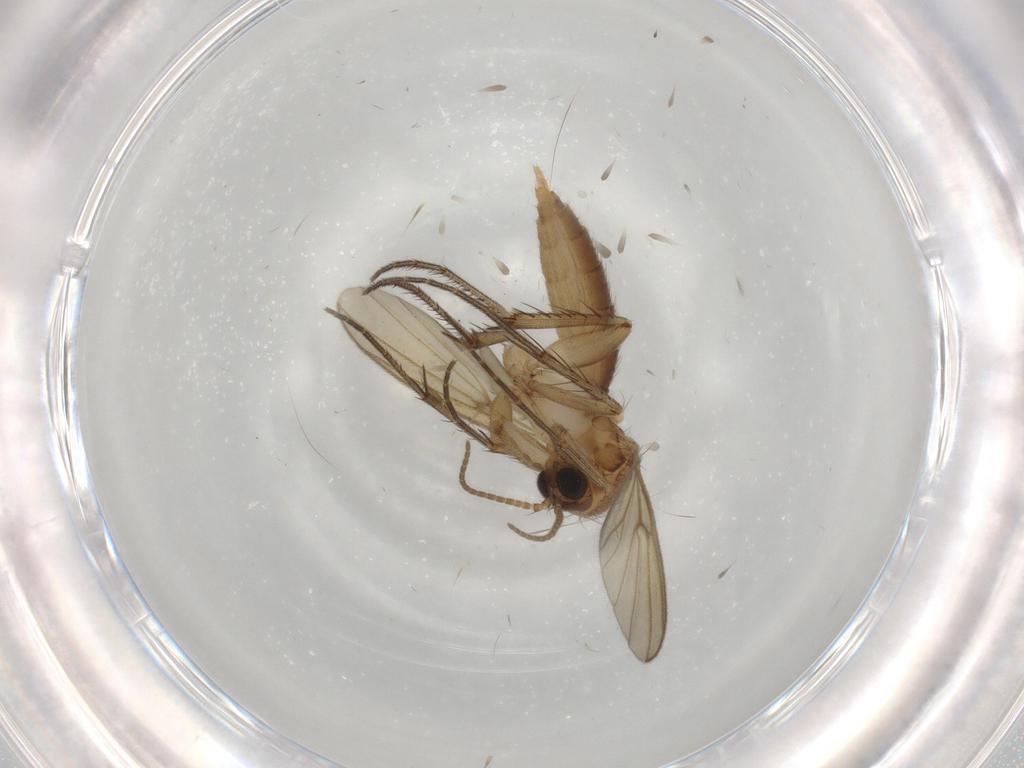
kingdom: Animalia
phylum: Arthropoda
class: Insecta
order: Diptera
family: Mycetophilidae
